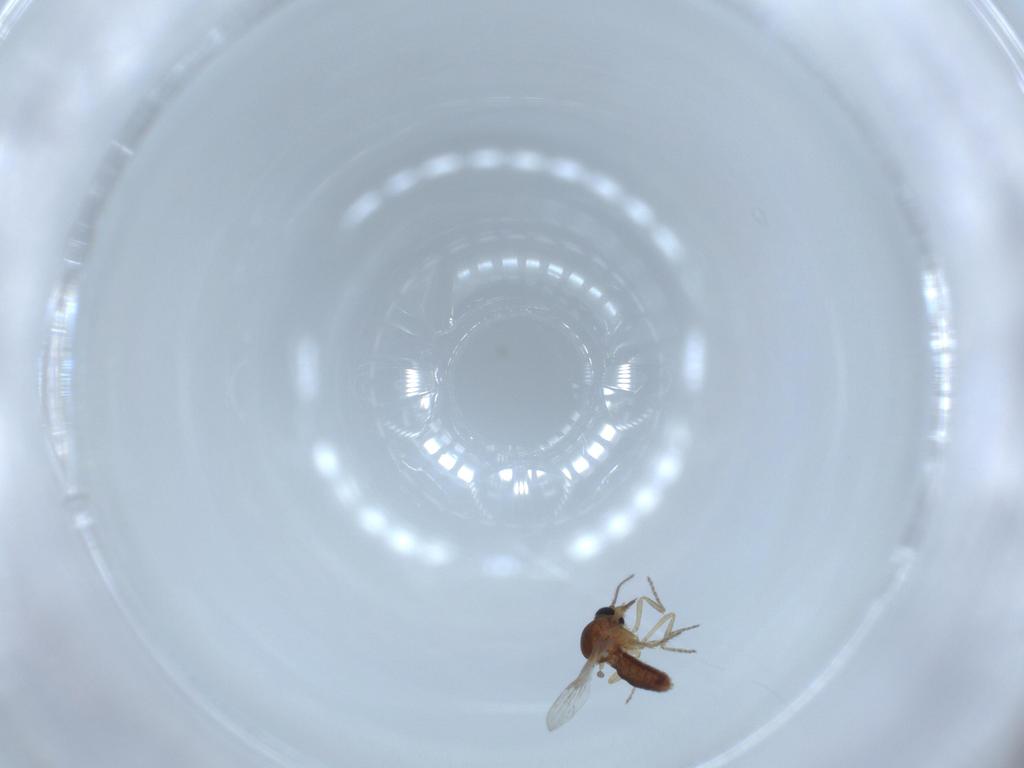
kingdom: Animalia
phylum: Arthropoda
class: Insecta
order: Diptera
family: Ceratopogonidae
